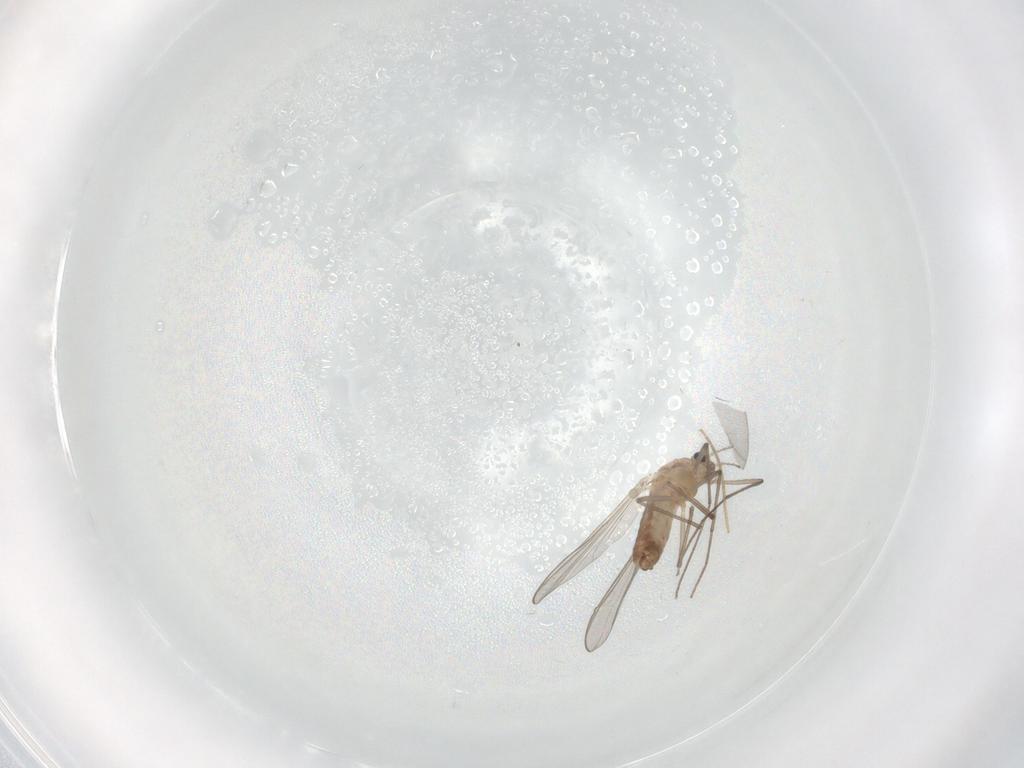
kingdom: Animalia
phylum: Arthropoda
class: Insecta
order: Diptera
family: Chironomidae
